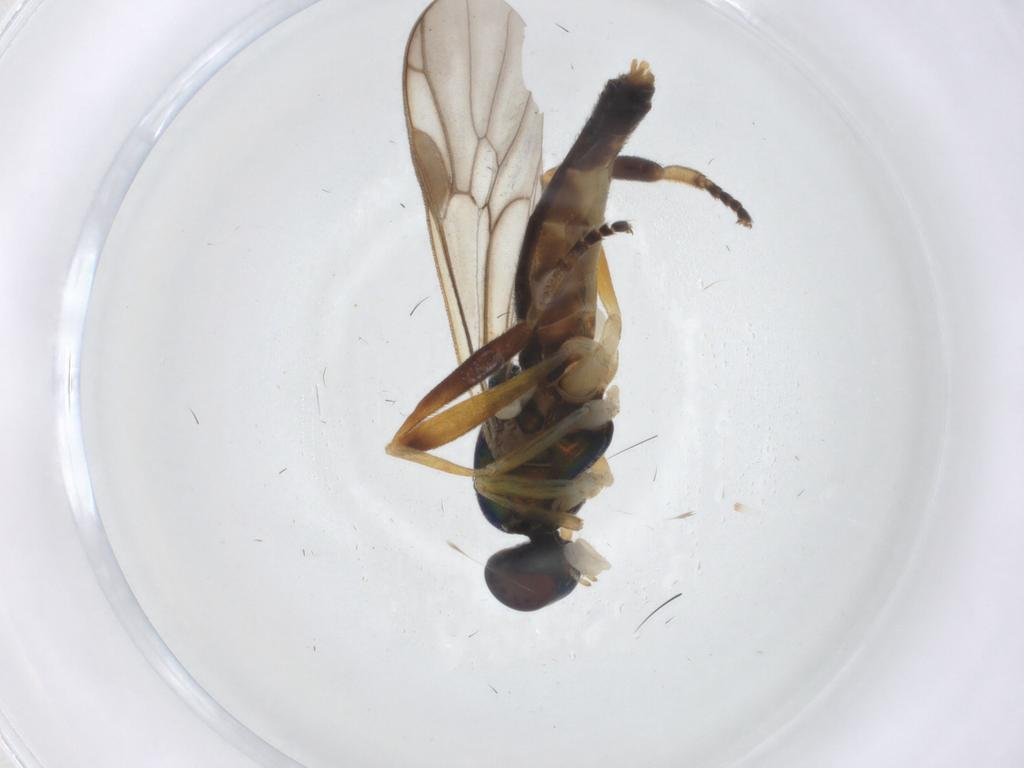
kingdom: Animalia
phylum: Arthropoda
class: Insecta
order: Diptera
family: Stratiomyidae
